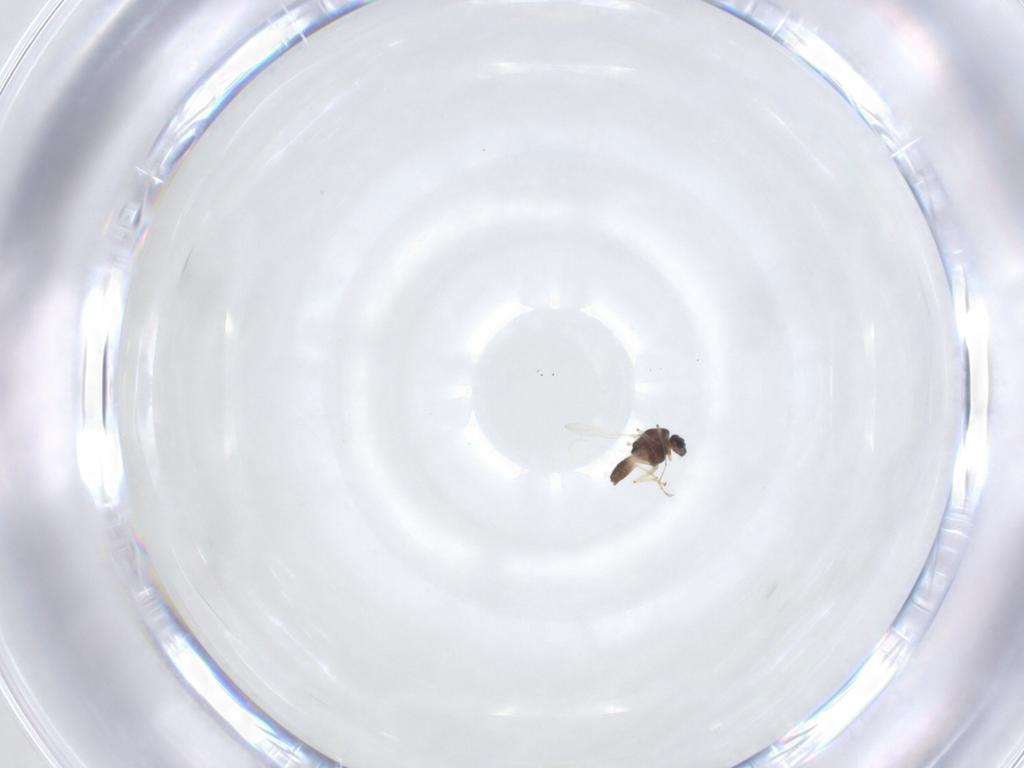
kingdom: Animalia
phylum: Arthropoda
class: Insecta
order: Diptera
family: Chironomidae
